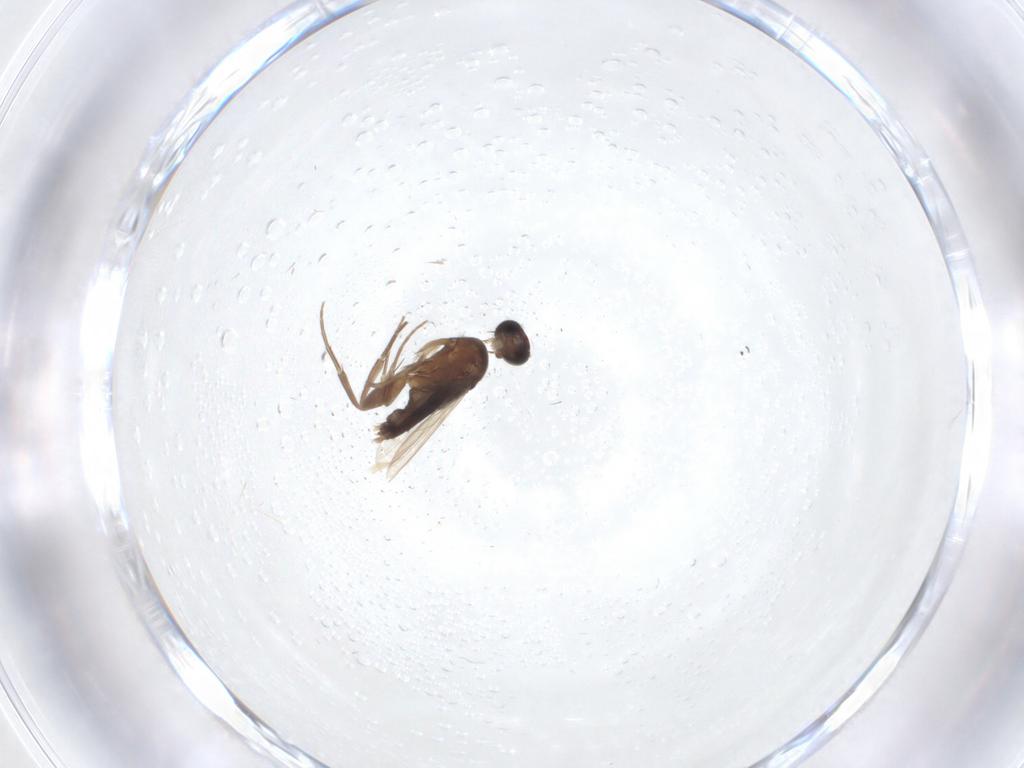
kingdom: Animalia
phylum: Arthropoda
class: Insecta
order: Diptera
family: Phoridae
